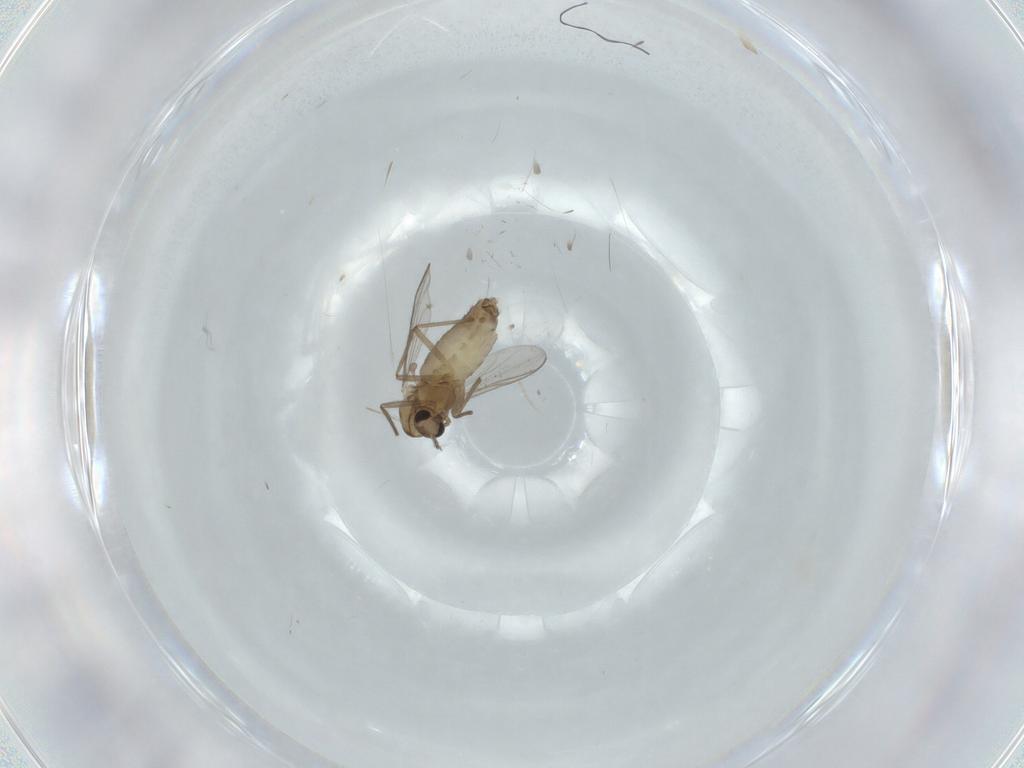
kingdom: Animalia
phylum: Arthropoda
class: Insecta
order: Diptera
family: Chironomidae
